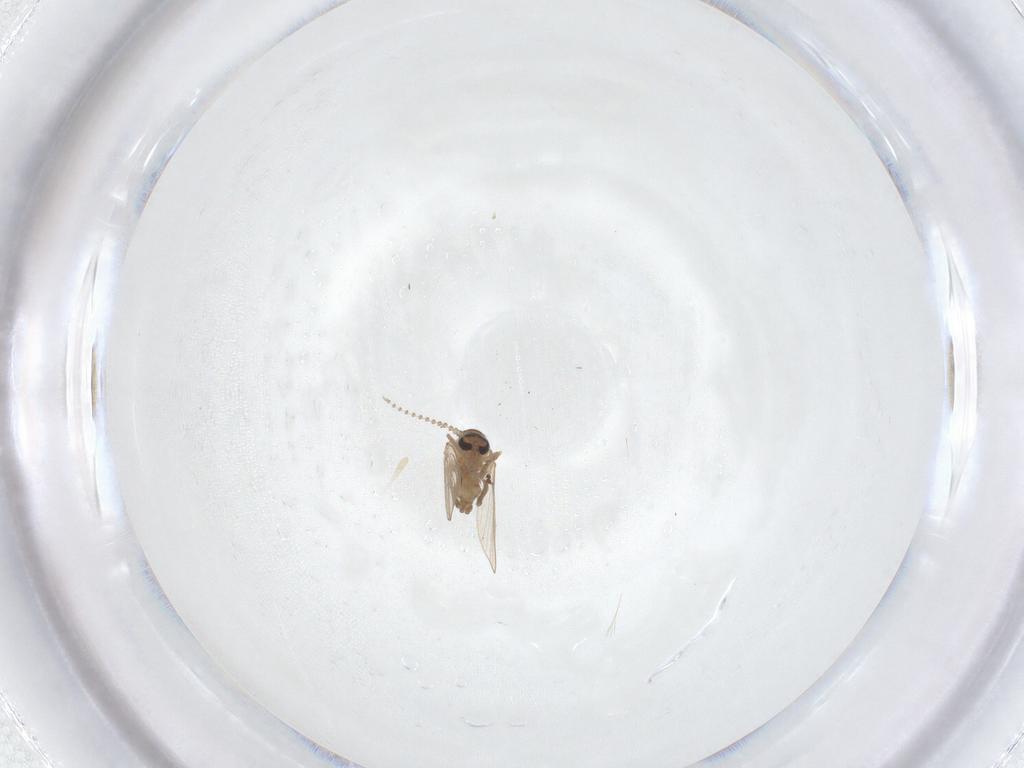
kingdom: Animalia
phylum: Arthropoda
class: Insecta
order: Diptera
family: Psychodidae
